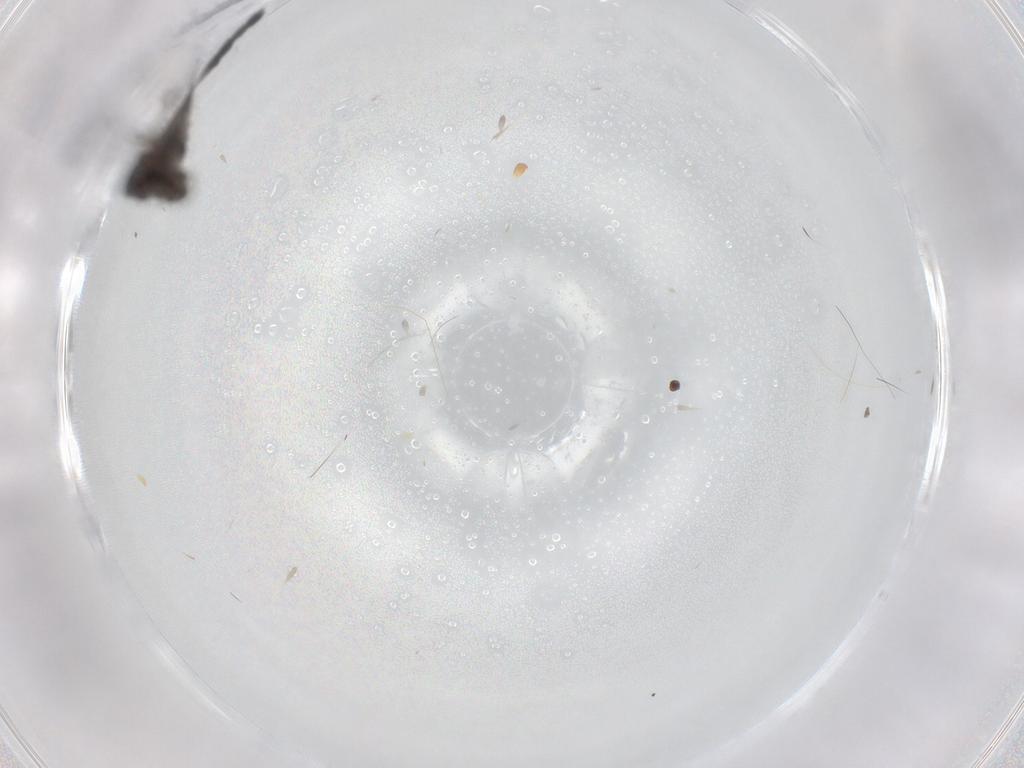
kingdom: Animalia
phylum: Arthropoda
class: Insecta
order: Diptera
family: Chironomidae
